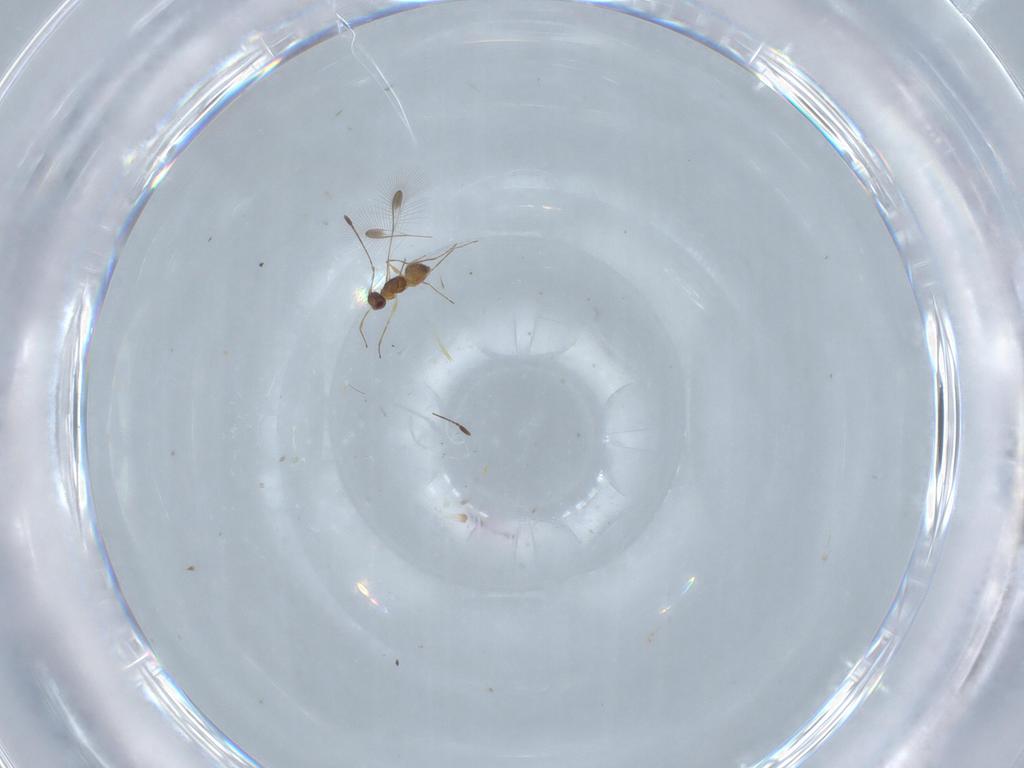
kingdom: Animalia
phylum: Arthropoda
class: Insecta
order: Hymenoptera
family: Mymaridae
